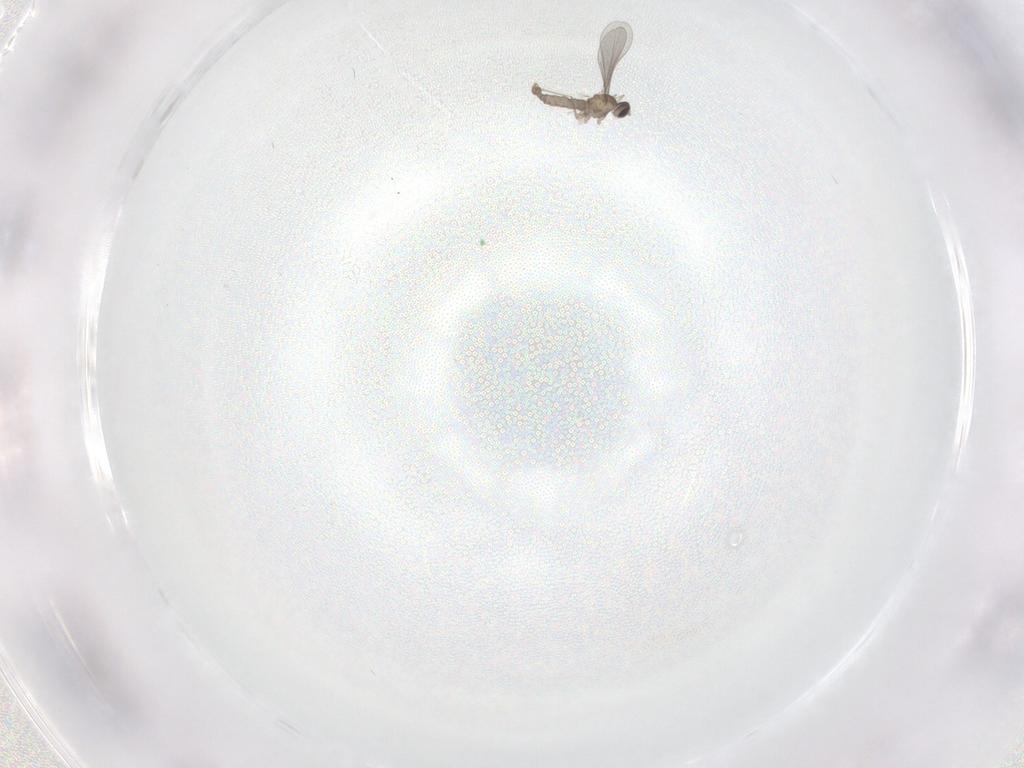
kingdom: Animalia
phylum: Arthropoda
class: Insecta
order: Diptera
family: Cecidomyiidae
